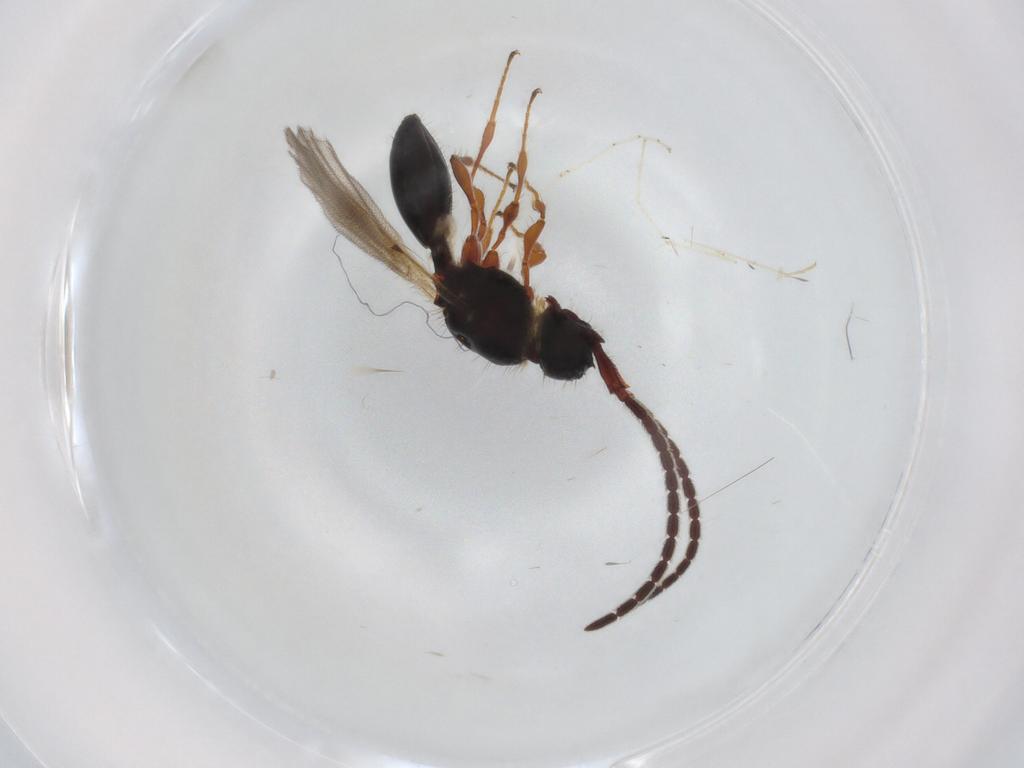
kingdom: Animalia
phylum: Arthropoda
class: Insecta
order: Hymenoptera
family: Diapriidae
